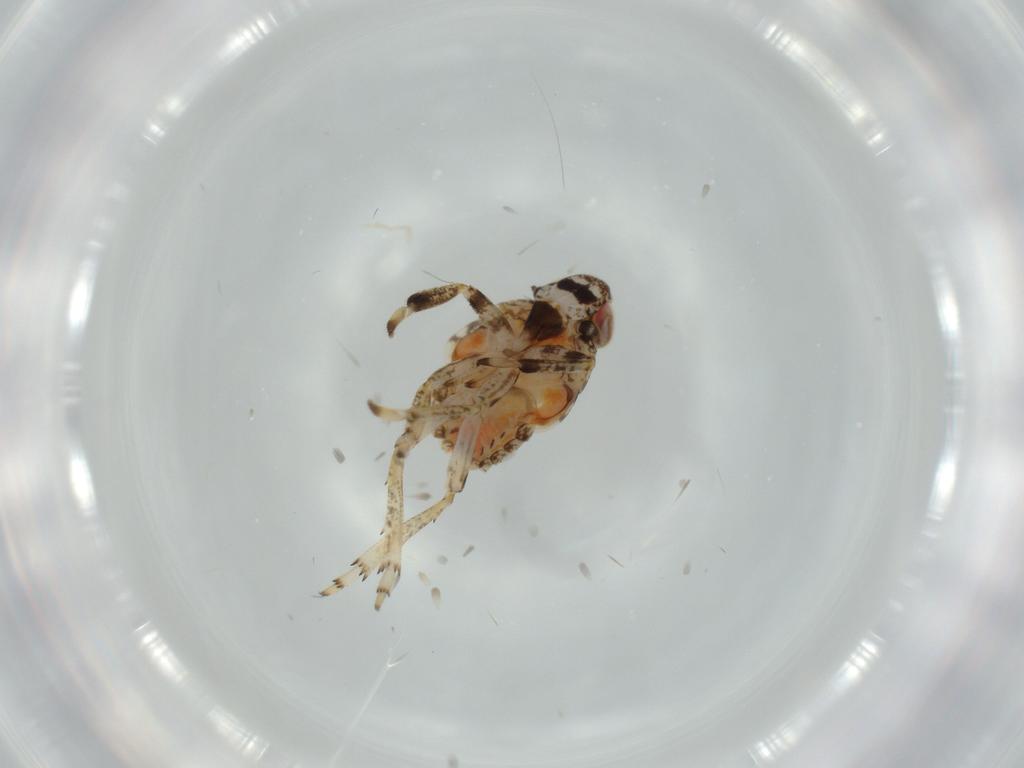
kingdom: Animalia
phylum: Arthropoda
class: Insecta
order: Hemiptera
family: Issidae
